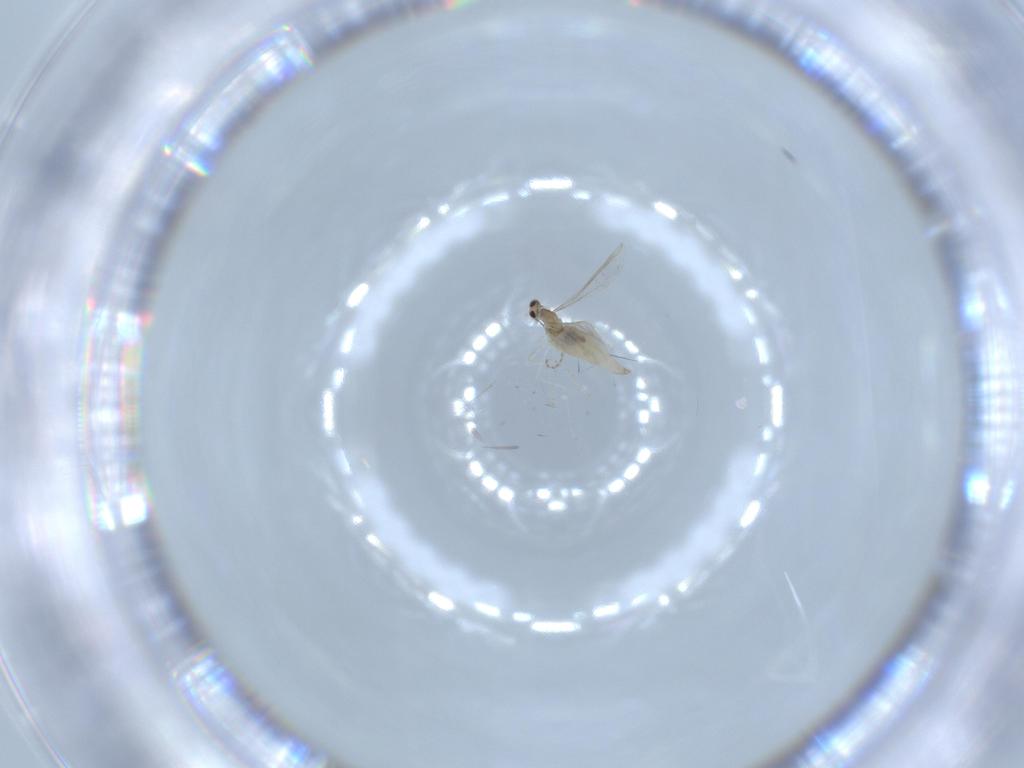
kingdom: Animalia
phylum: Arthropoda
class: Insecta
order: Diptera
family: Cecidomyiidae
